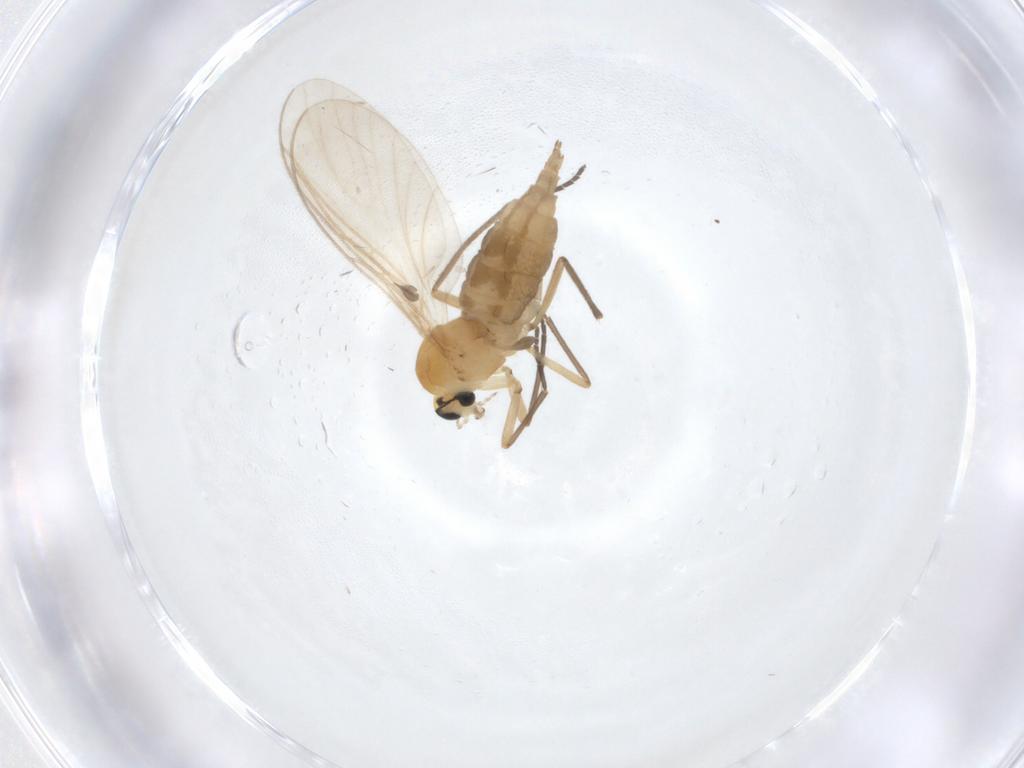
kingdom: Animalia
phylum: Arthropoda
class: Insecta
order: Diptera
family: Sciaridae
